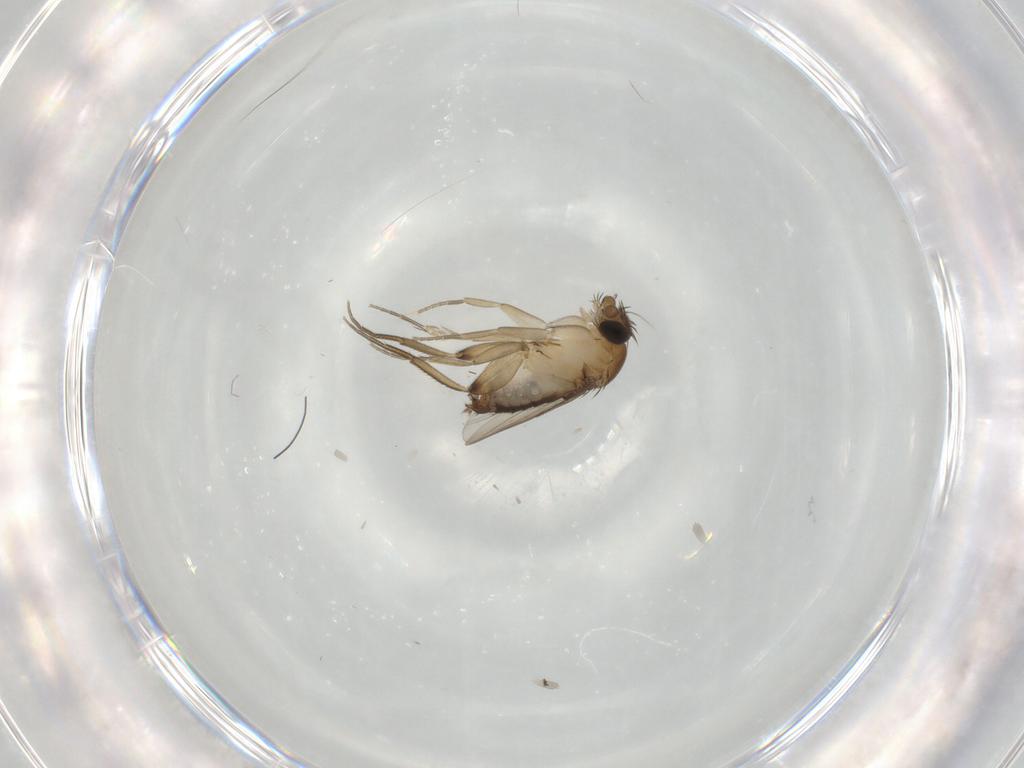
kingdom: Animalia
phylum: Arthropoda
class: Insecta
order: Diptera
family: Phoridae
